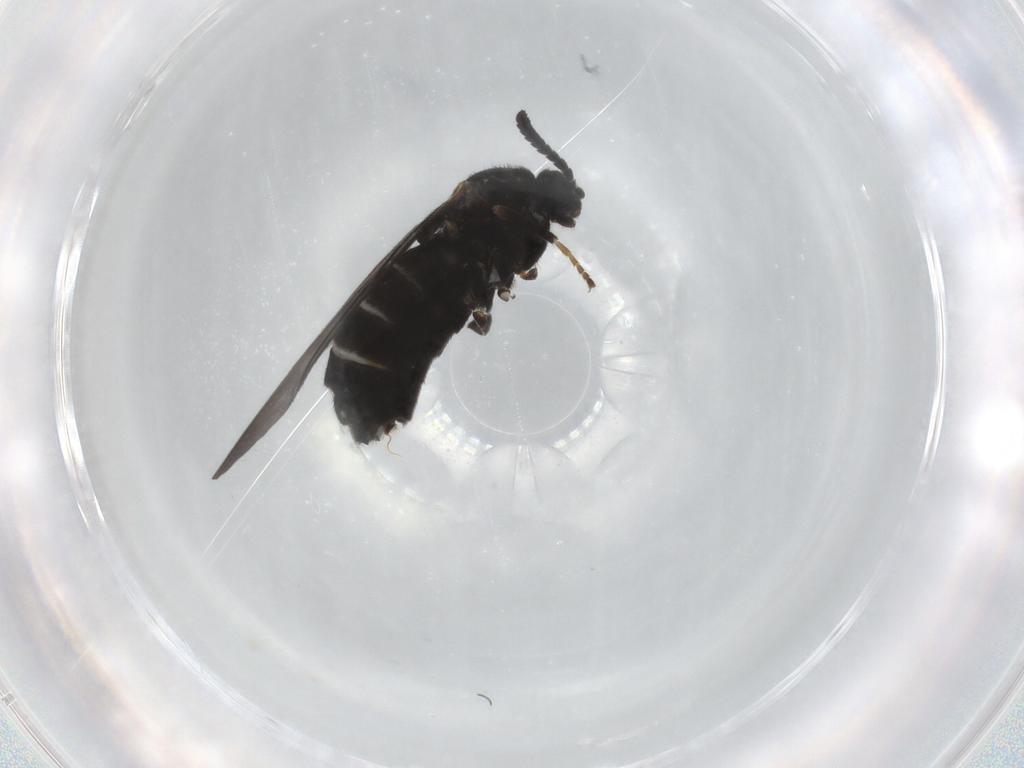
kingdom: Animalia
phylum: Arthropoda
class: Insecta
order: Diptera
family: Scatopsidae
